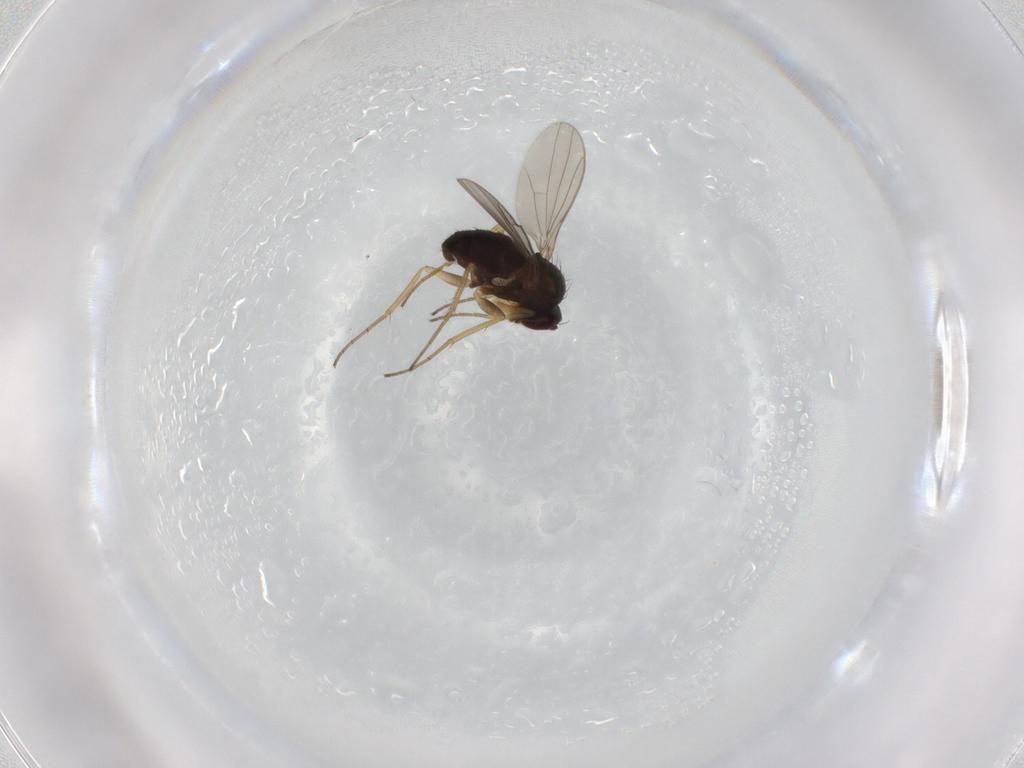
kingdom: Animalia
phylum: Arthropoda
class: Insecta
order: Diptera
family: Dolichopodidae
